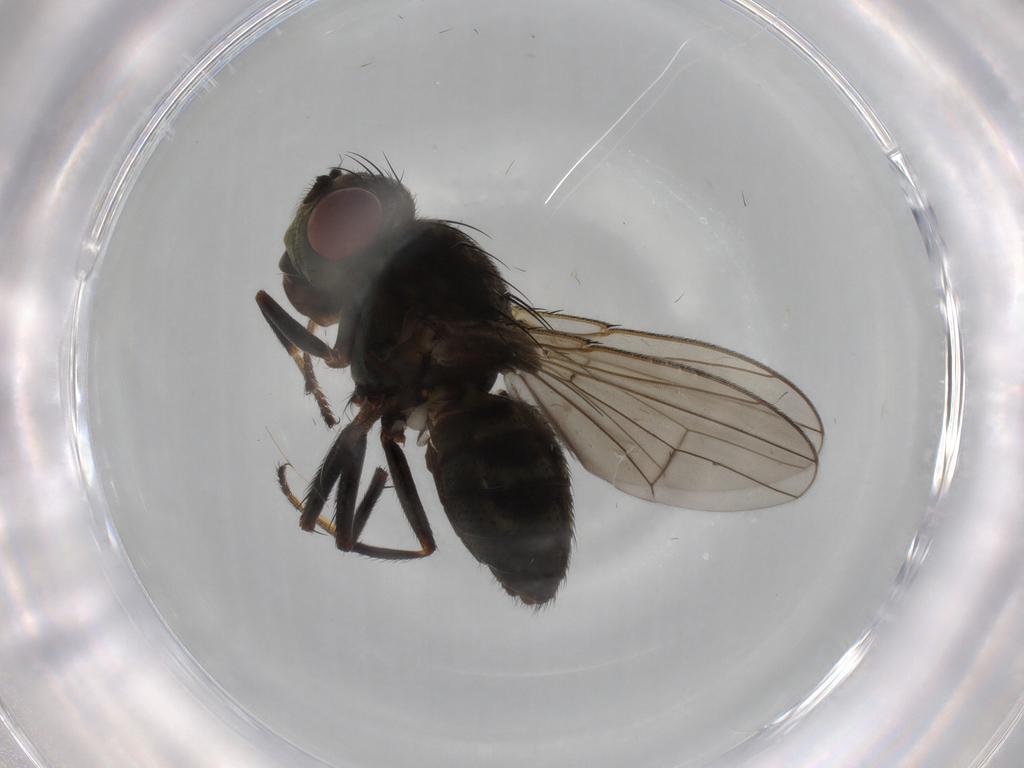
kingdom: Animalia
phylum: Arthropoda
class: Insecta
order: Diptera
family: Ephydridae
